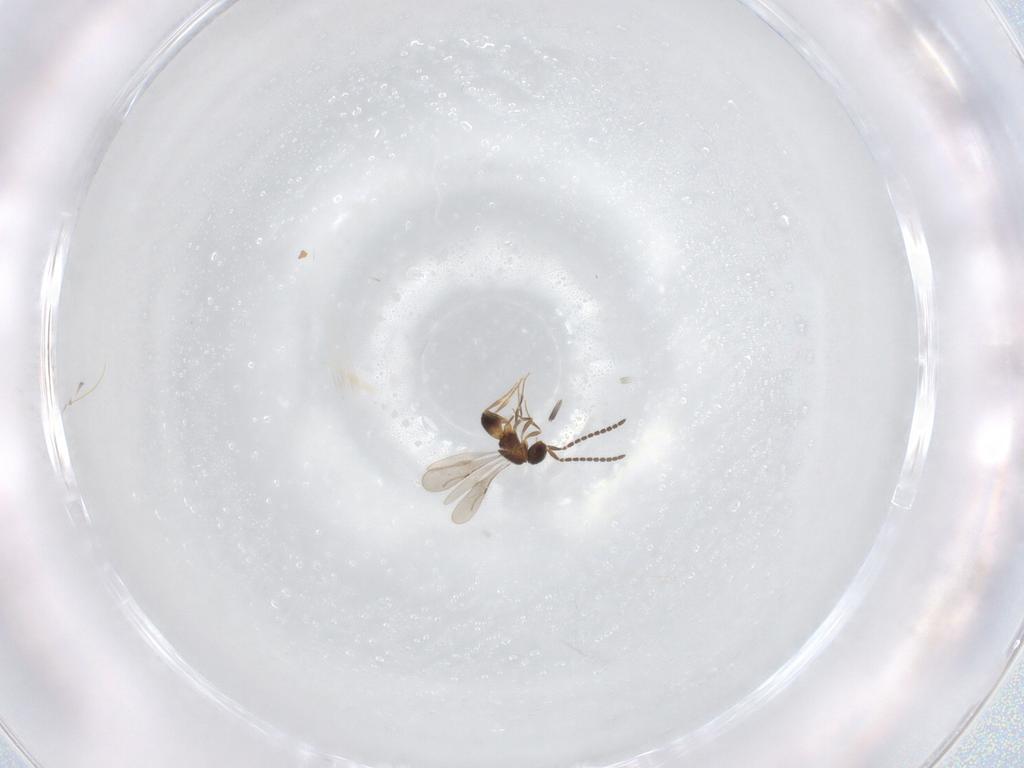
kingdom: Animalia
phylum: Arthropoda
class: Insecta
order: Hymenoptera
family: Ceraphronidae
